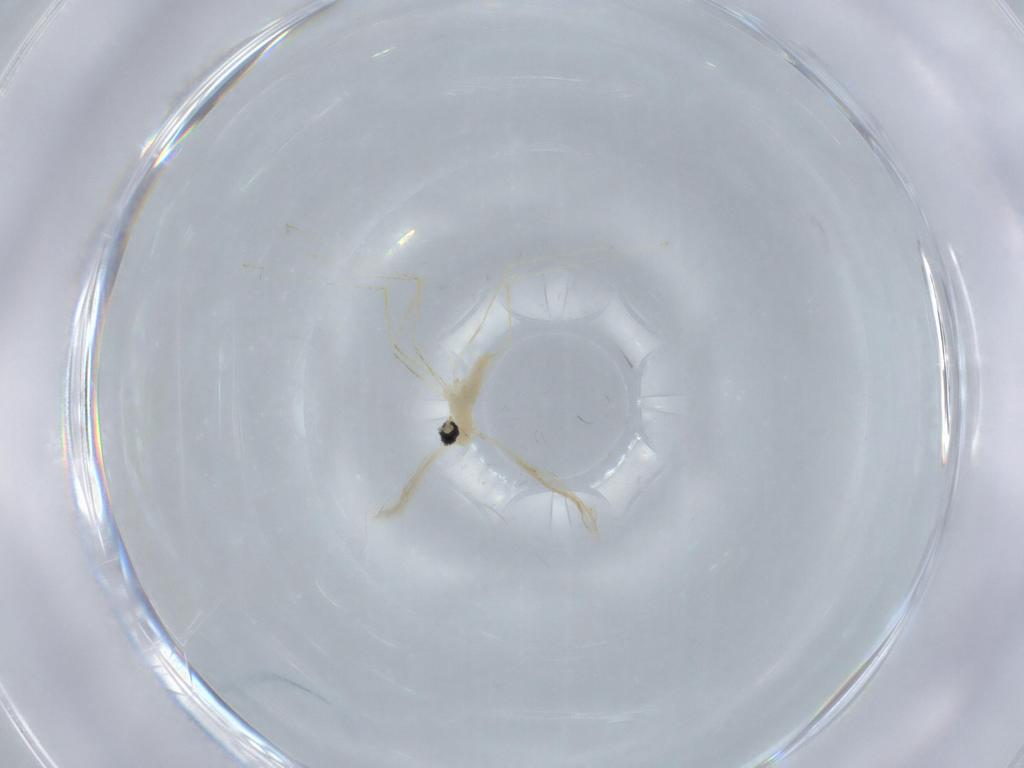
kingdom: Animalia
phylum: Arthropoda
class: Insecta
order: Diptera
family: Cecidomyiidae
